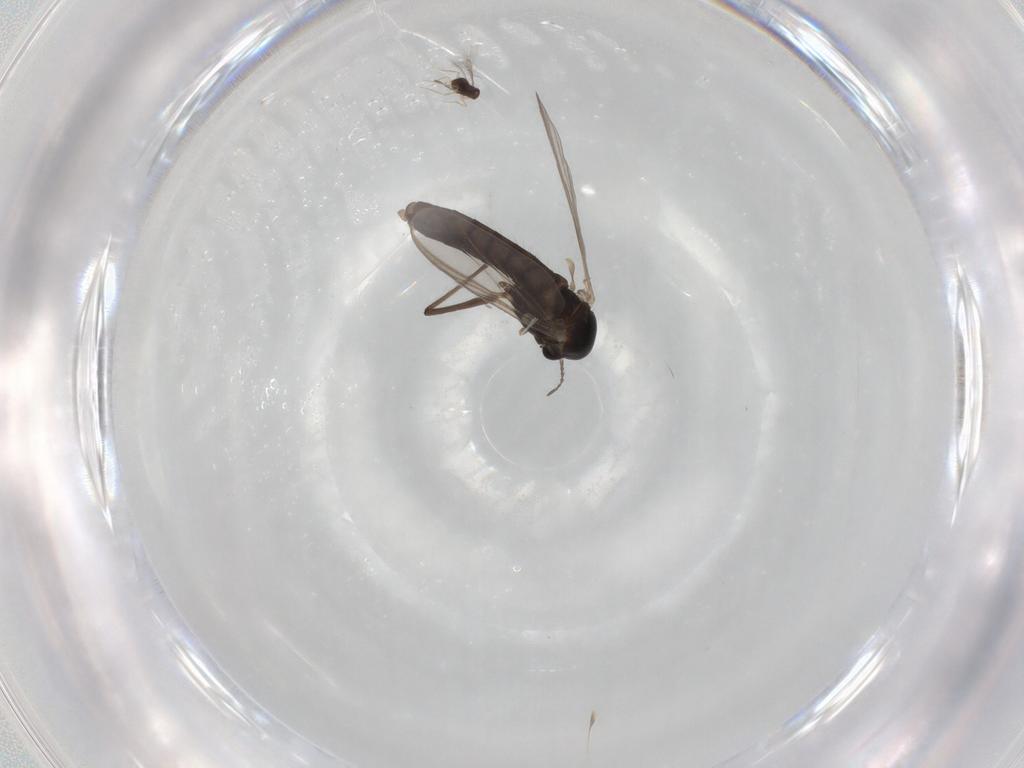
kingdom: Animalia
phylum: Arthropoda
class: Insecta
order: Diptera
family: Chironomidae
